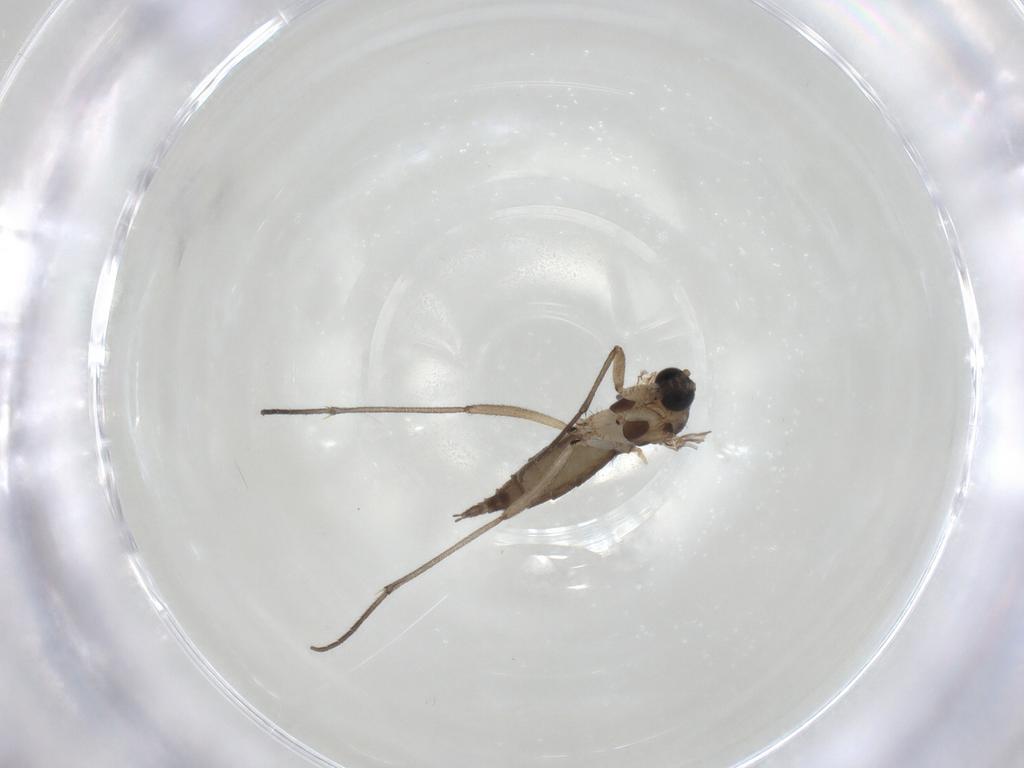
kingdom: Animalia
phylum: Arthropoda
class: Insecta
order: Diptera
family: Sciaridae
